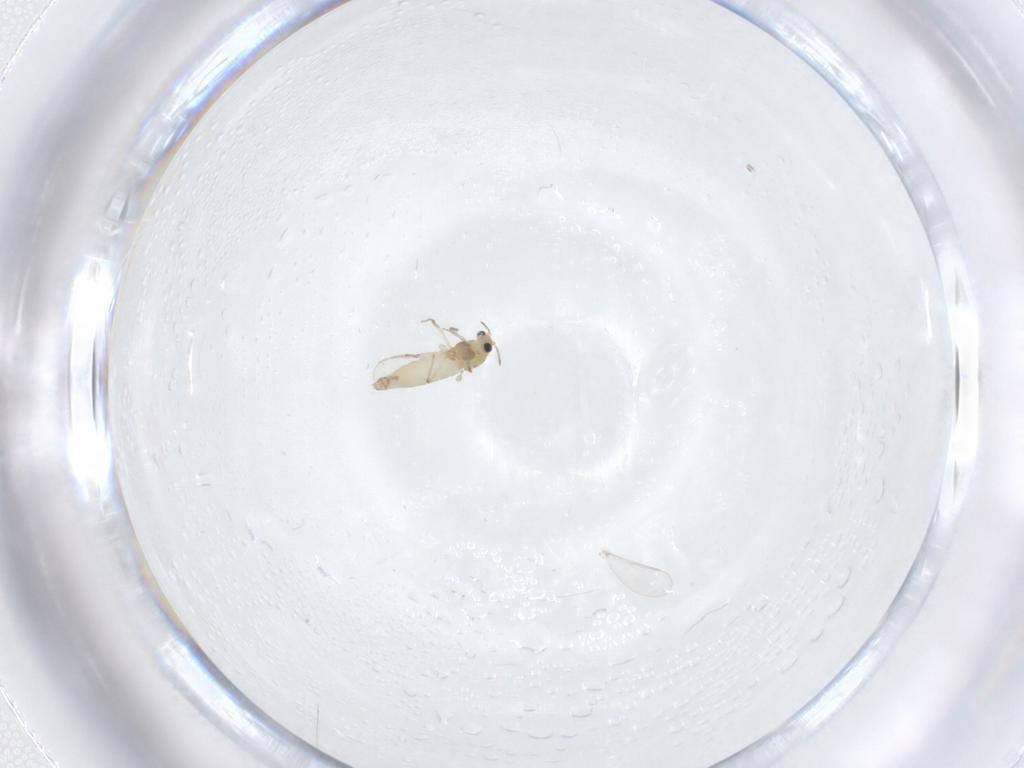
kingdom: Animalia
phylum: Arthropoda
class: Insecta
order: Diptera
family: Chironomidae
